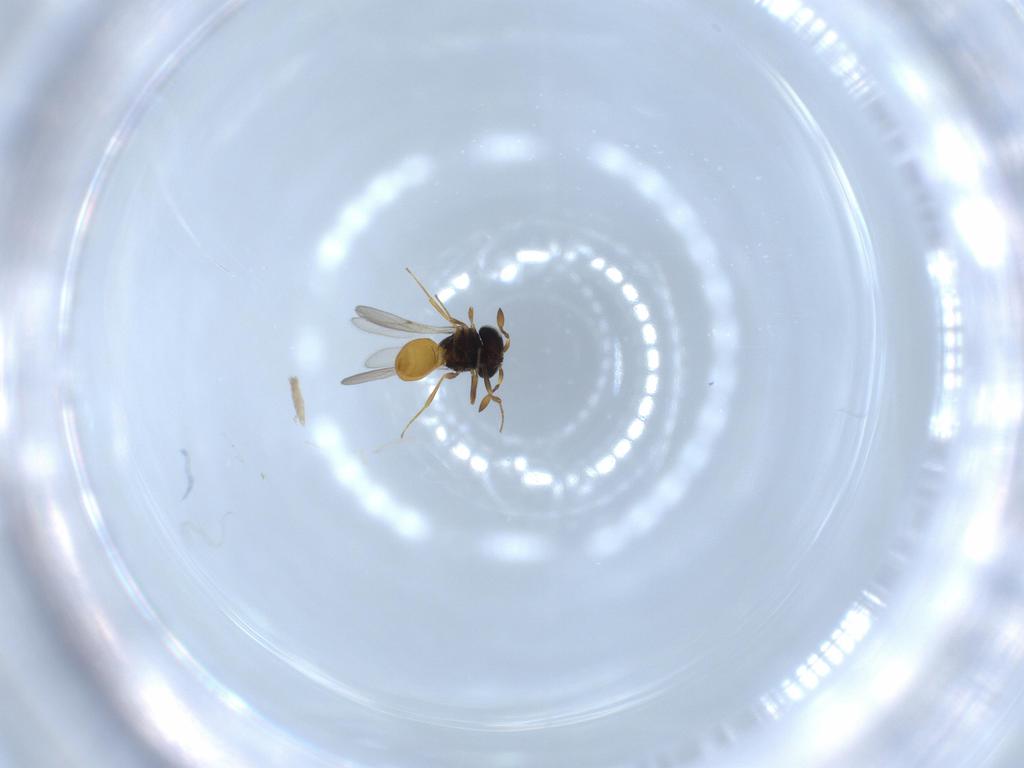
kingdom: Animalia
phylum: Arthropoda
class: Insecta
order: Hymenoptera
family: Scelionidae
